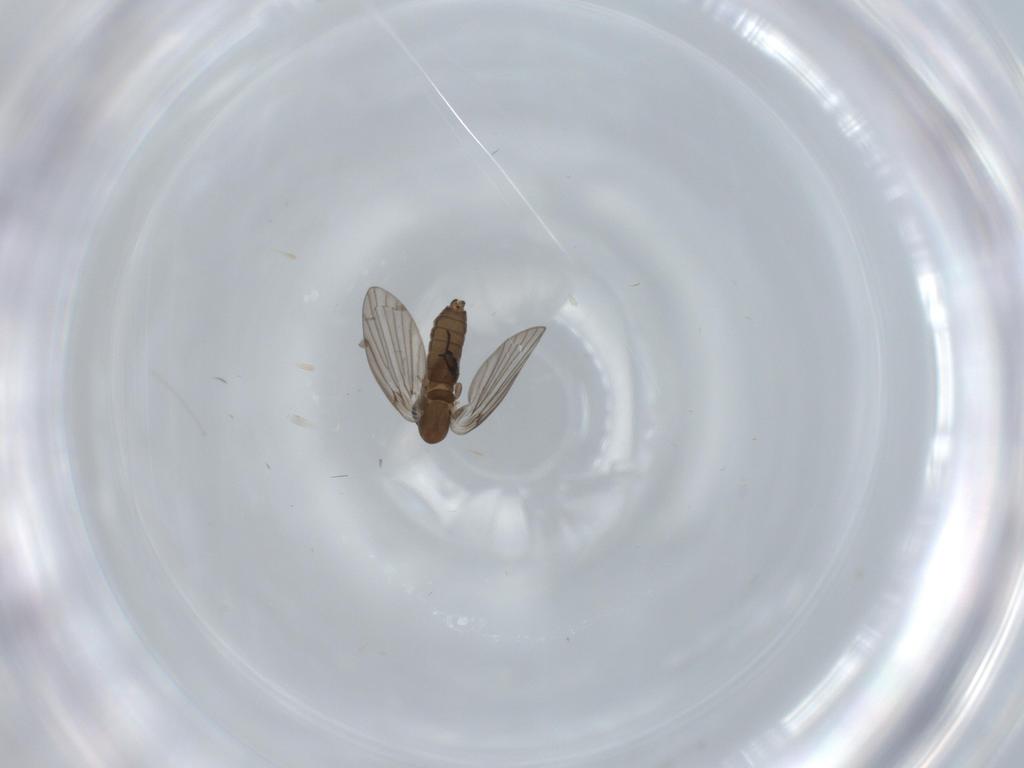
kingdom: Animalia
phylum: Arthropoda
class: Insecta
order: Diptera
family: Psychodidae
